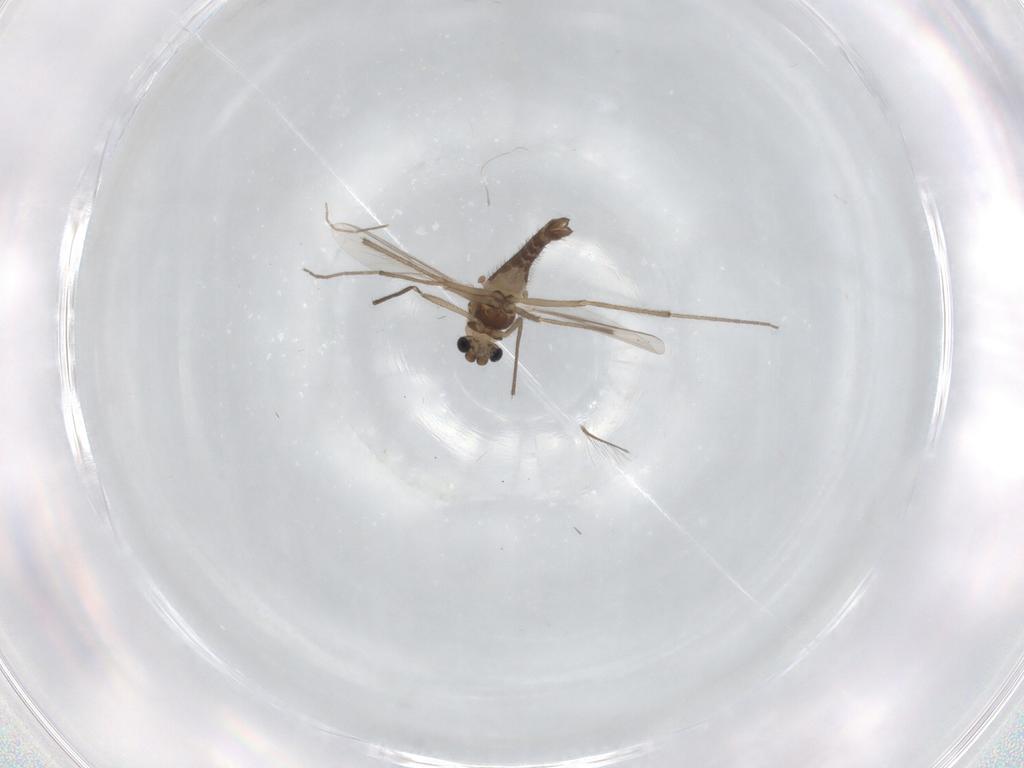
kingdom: Animalia
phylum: Arthropoda
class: Insecta
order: Diptera
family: Chironomidae
